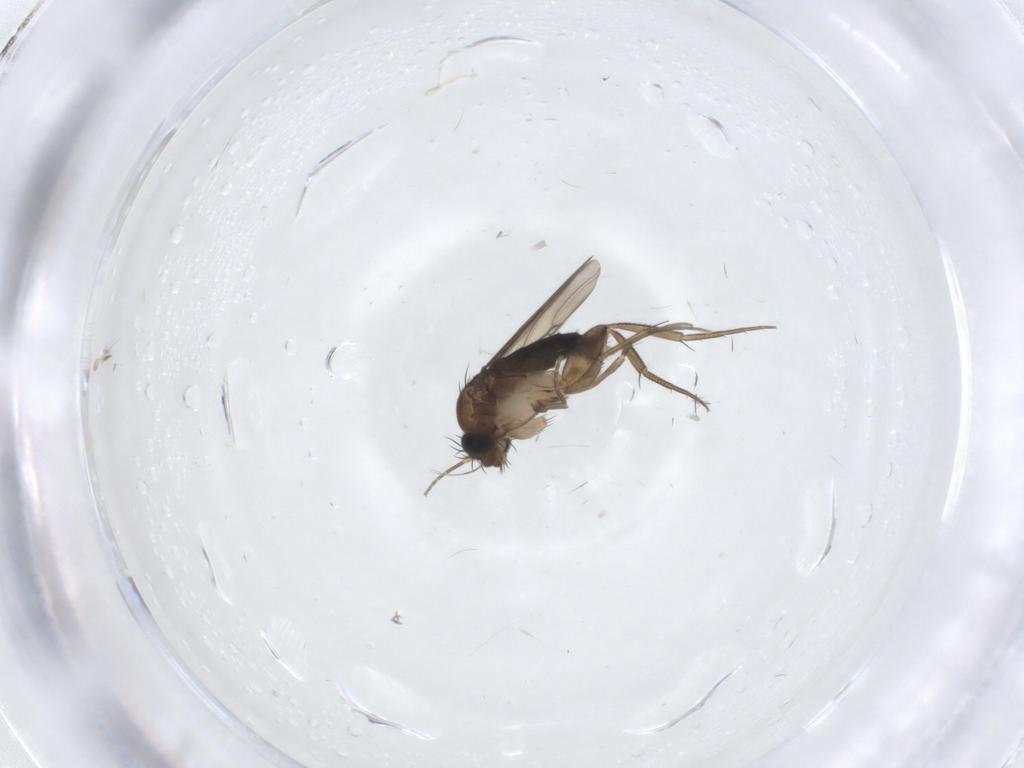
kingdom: Animalia
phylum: Arthropoda
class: Insecta
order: Diptera
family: Phoridae
